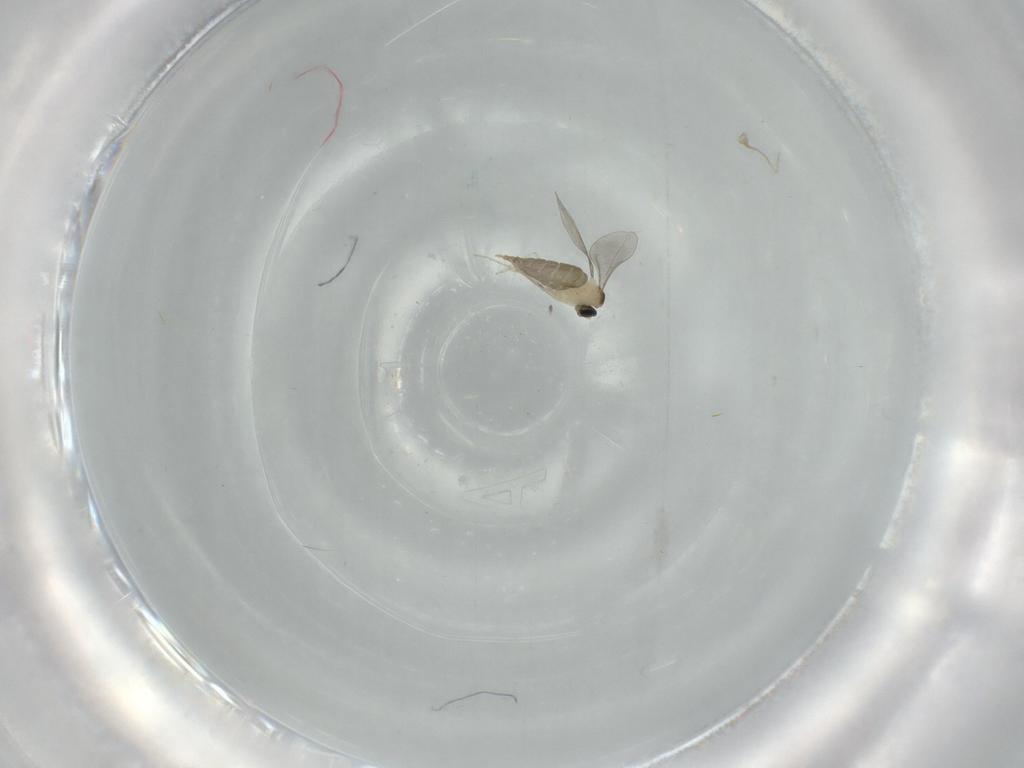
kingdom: Animalia
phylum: Arthropoda
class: Insecta
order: Diptera
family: Cecidomyiidae
